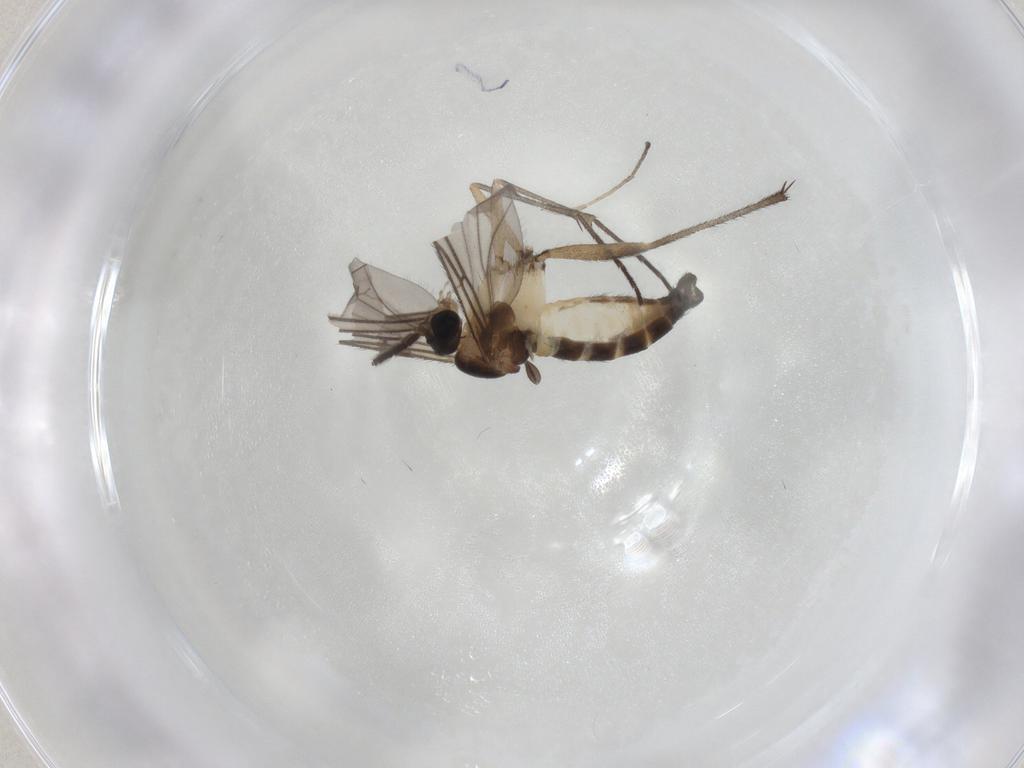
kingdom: Animalia
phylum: Arthropoda
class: Insecta
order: Diptera
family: Sciaridae
